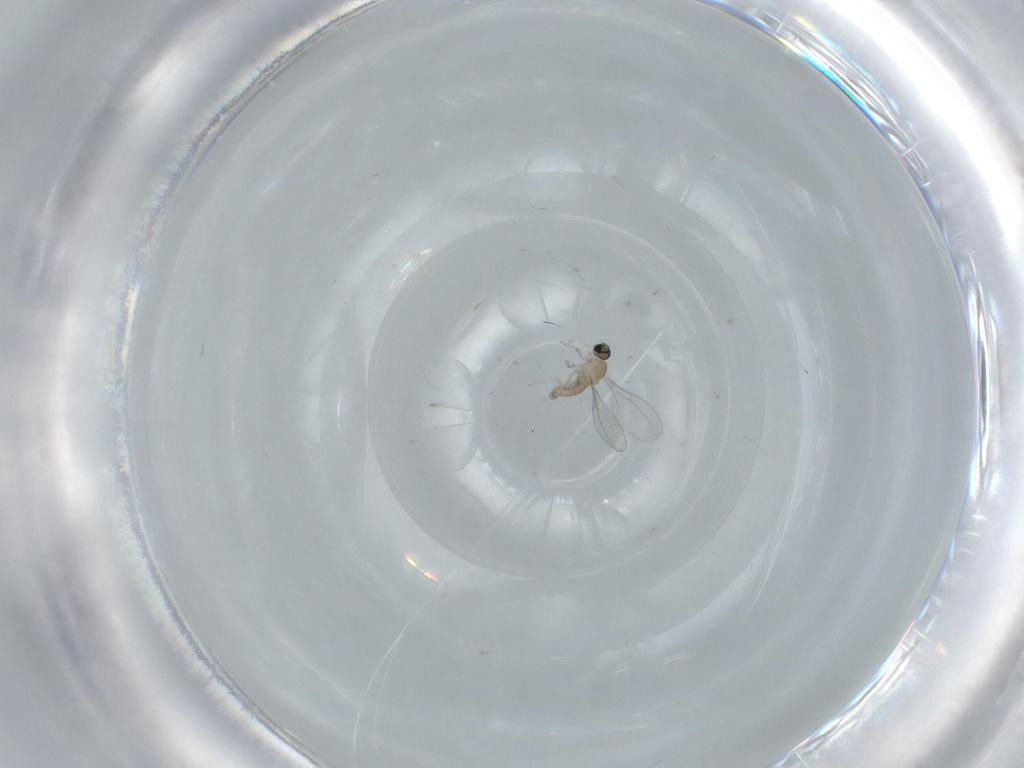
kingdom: Animalia
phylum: Arthropoda
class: Insecta
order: Diptera
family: Cecidomyiidae
